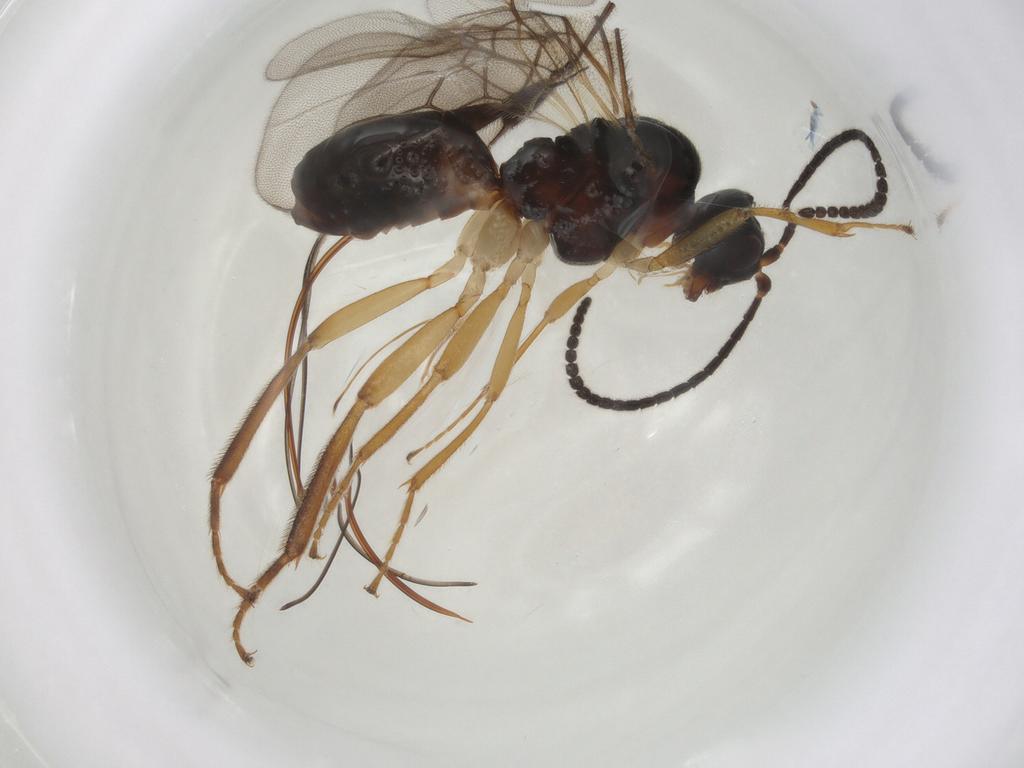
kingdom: Animalia
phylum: Arthropoda
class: Insecta
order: Hymenoptera
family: Braconidae
